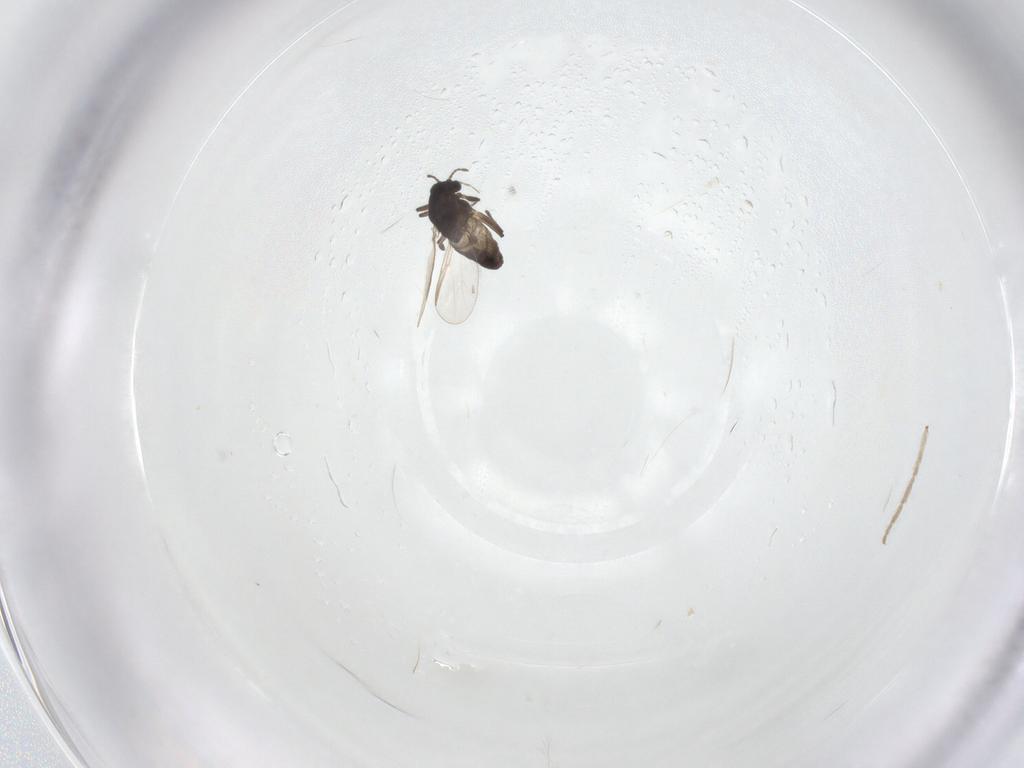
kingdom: Animalia
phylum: Arthropoda
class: Insecta
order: Diptera
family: Chironomidae
